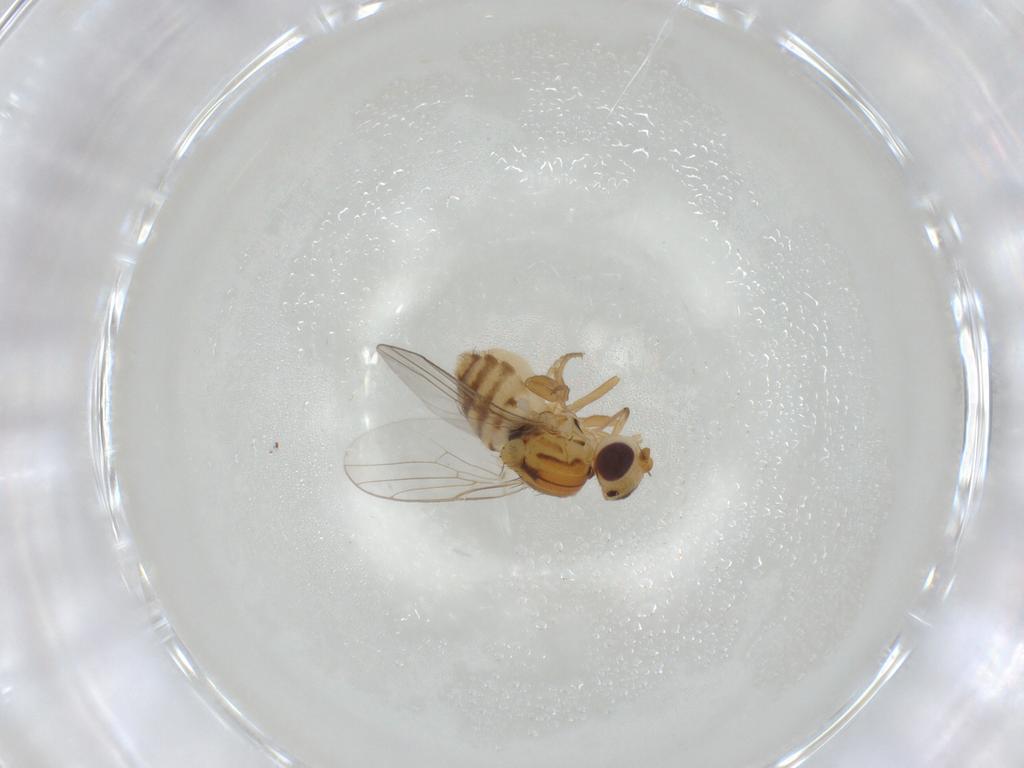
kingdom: Animalia
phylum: Arthropoda
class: Insecta
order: Diptera
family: Chloropidae
